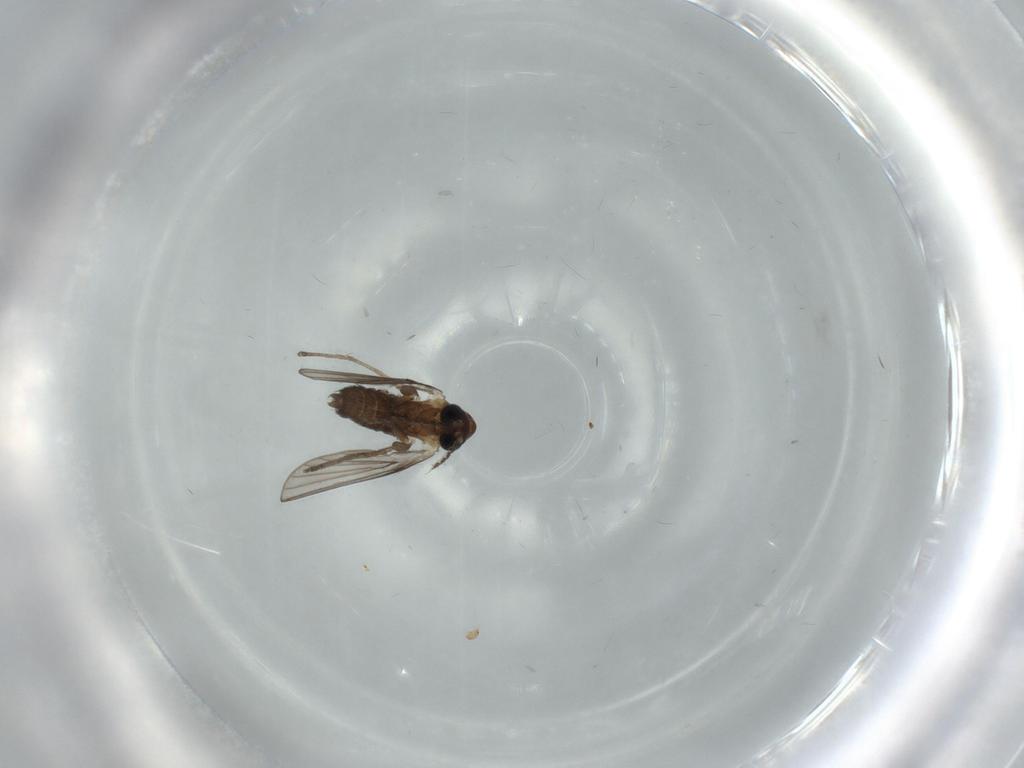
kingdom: Animalia
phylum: Arthropoda
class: Insecta
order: Diptera
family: Psychodidae
